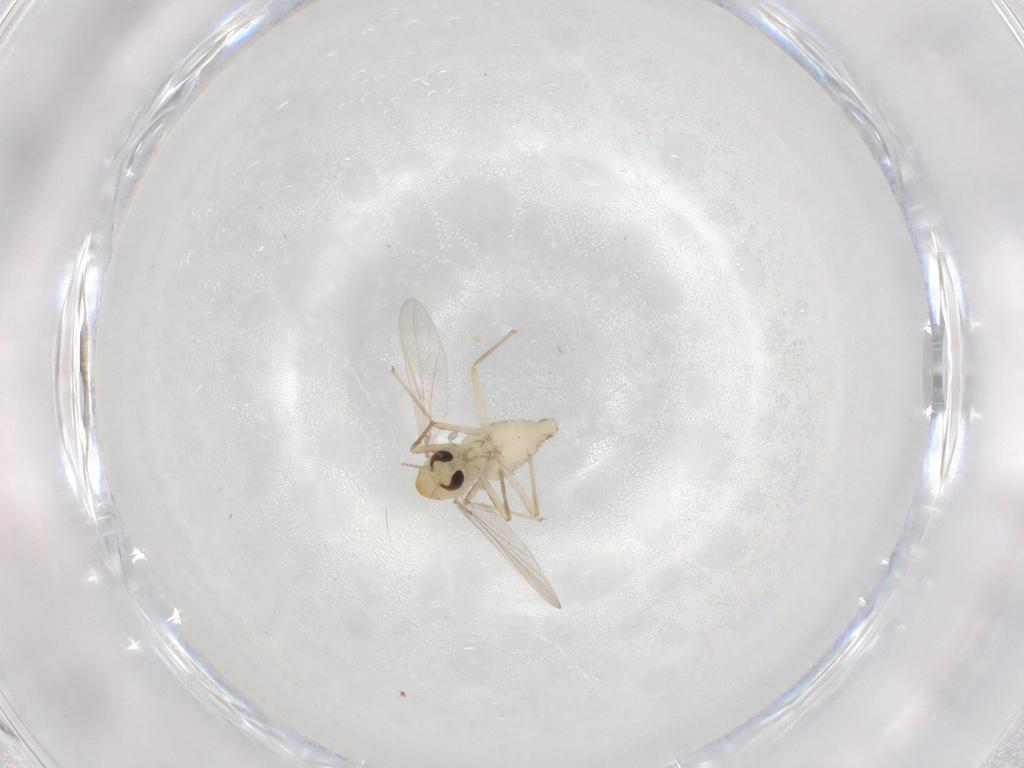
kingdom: Animalia
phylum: Arthropoda
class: Insecta
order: Diptera
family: Chironomidae
